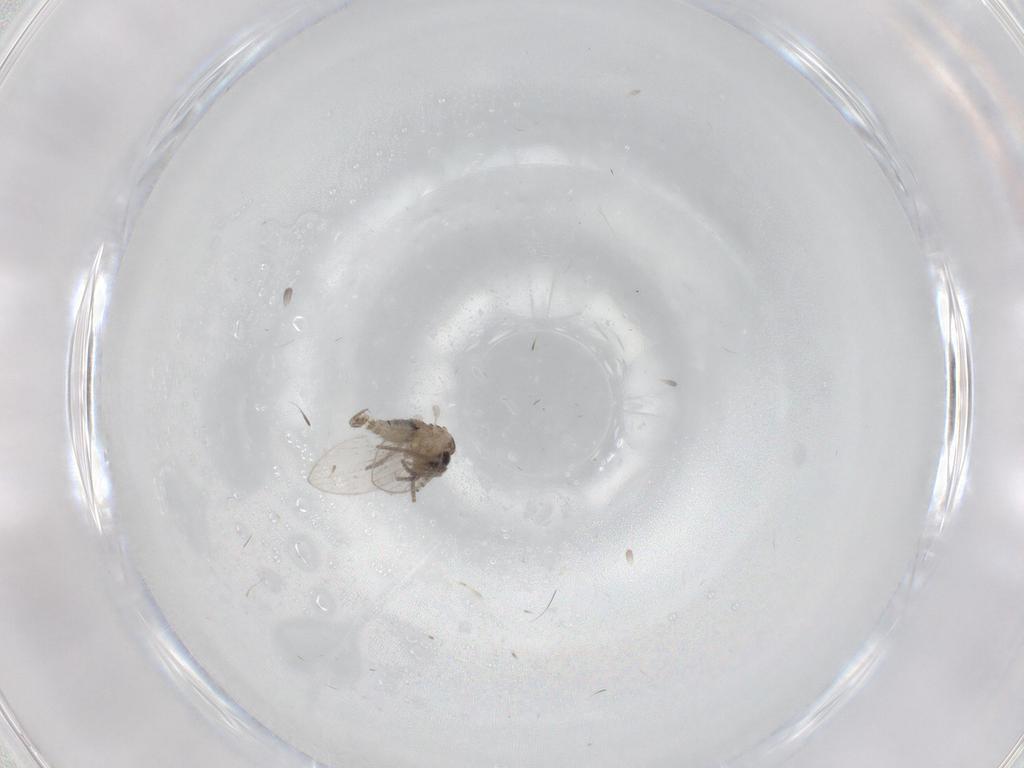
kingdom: Animalia
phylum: Arthropoda
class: Insecta
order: Diptera
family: Psychodidae
